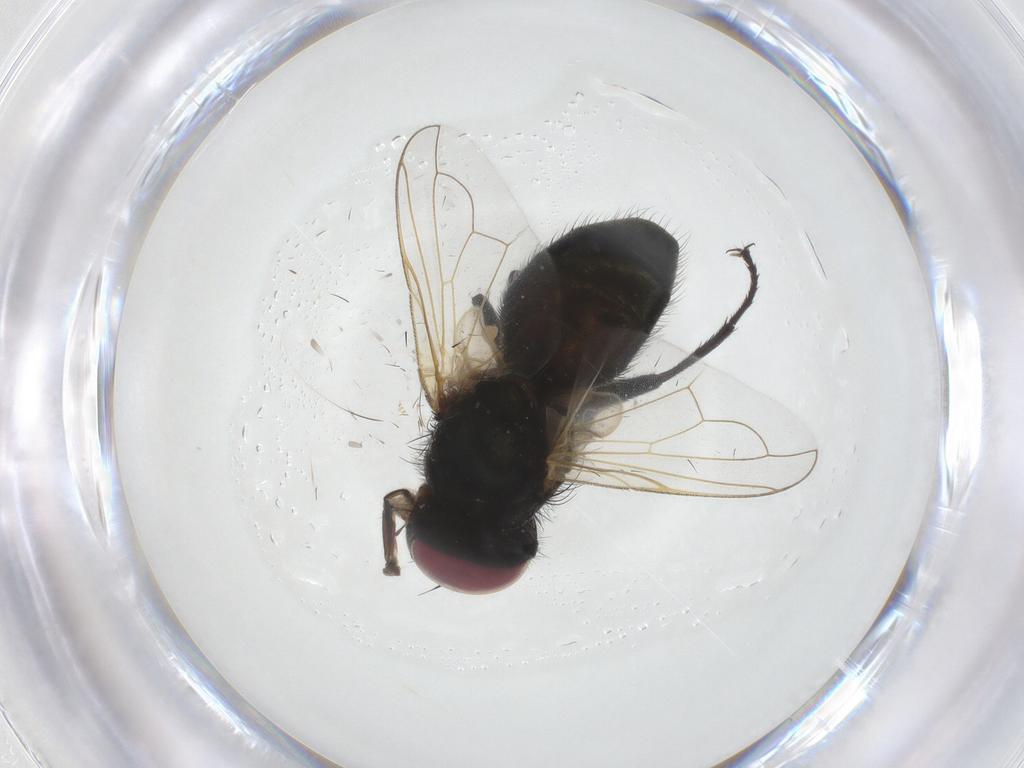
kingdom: Animalia
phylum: Arthropoda
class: Insecta
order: Diptera
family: Tachinidae
